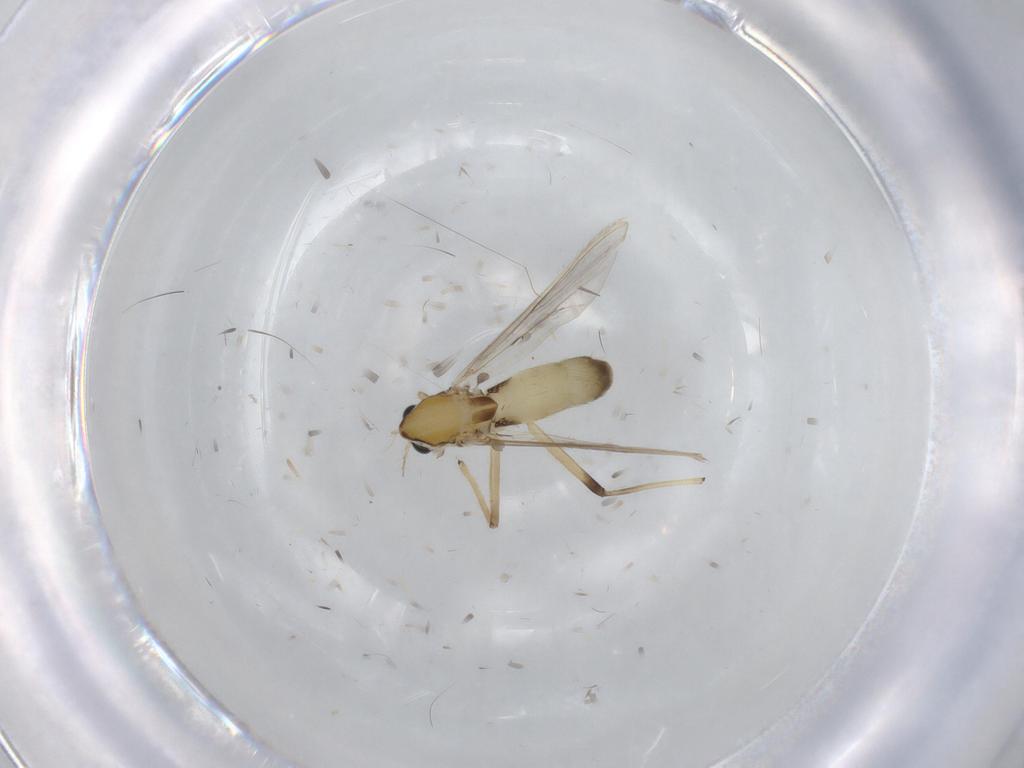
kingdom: Animalia
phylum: Arthropoda
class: Insecta
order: Diptera
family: Chironomidae
